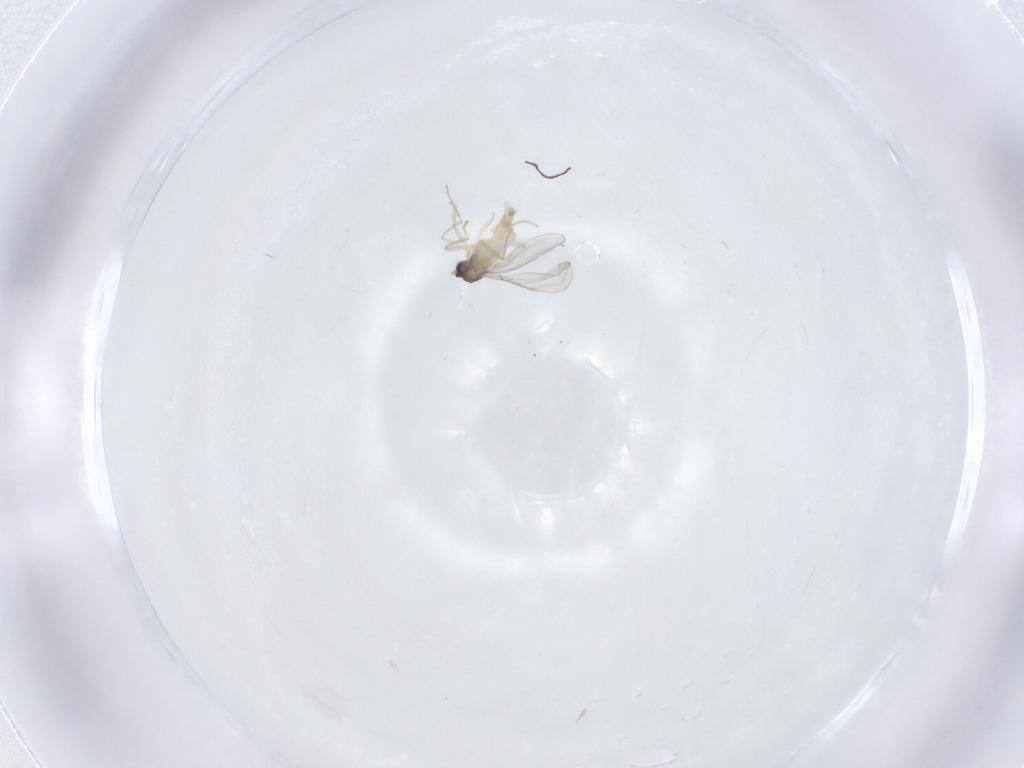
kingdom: Animalia
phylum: Arthropoda
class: Insecta
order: Diptera
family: Cecidomyiidae
